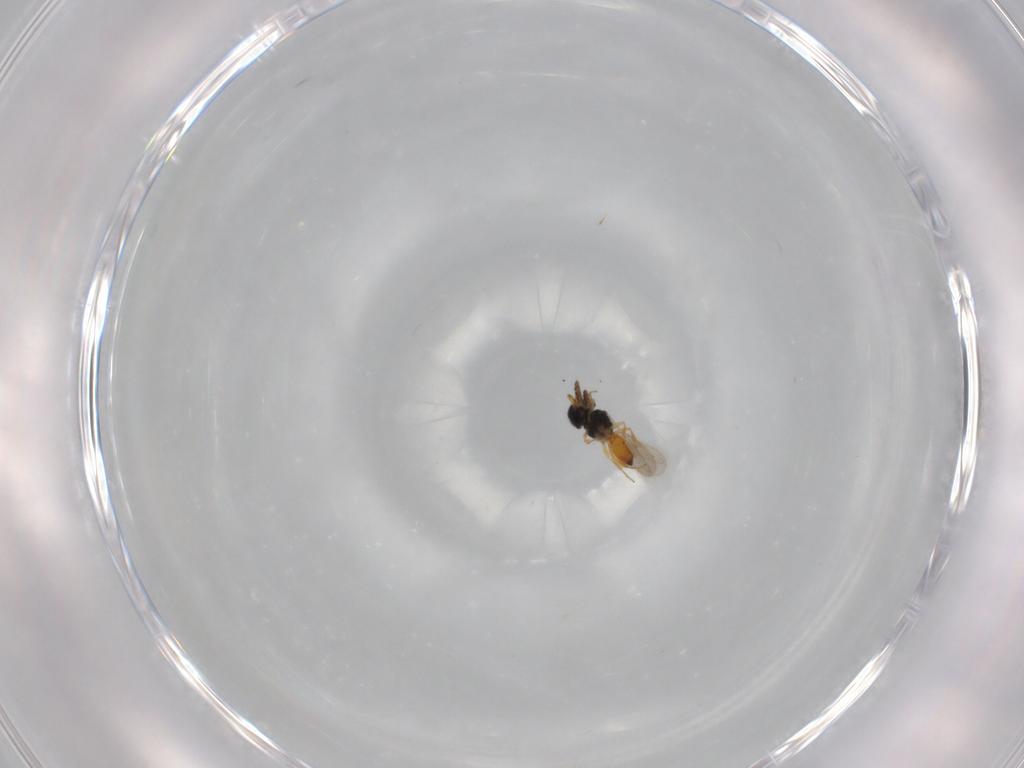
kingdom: Animalia
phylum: Arthropoda
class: Insecta
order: Hymenoptera
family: Scelionidae
